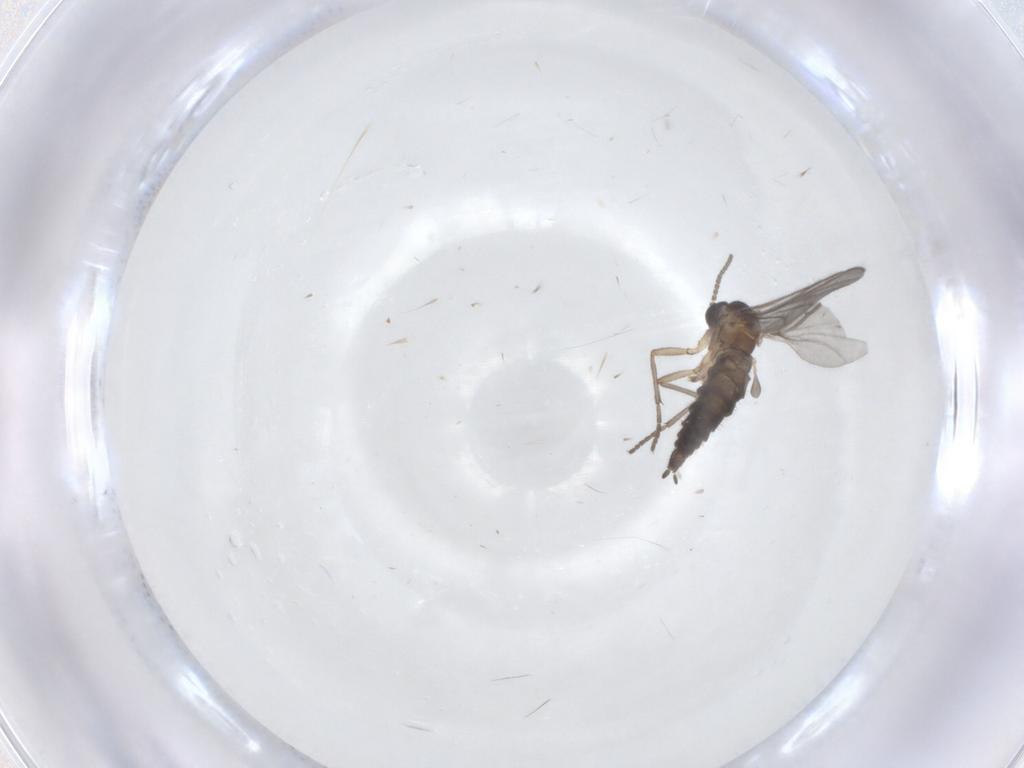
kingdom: Animalia
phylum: Arthropoda
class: Insecta
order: Diptera
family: Sciaridae
